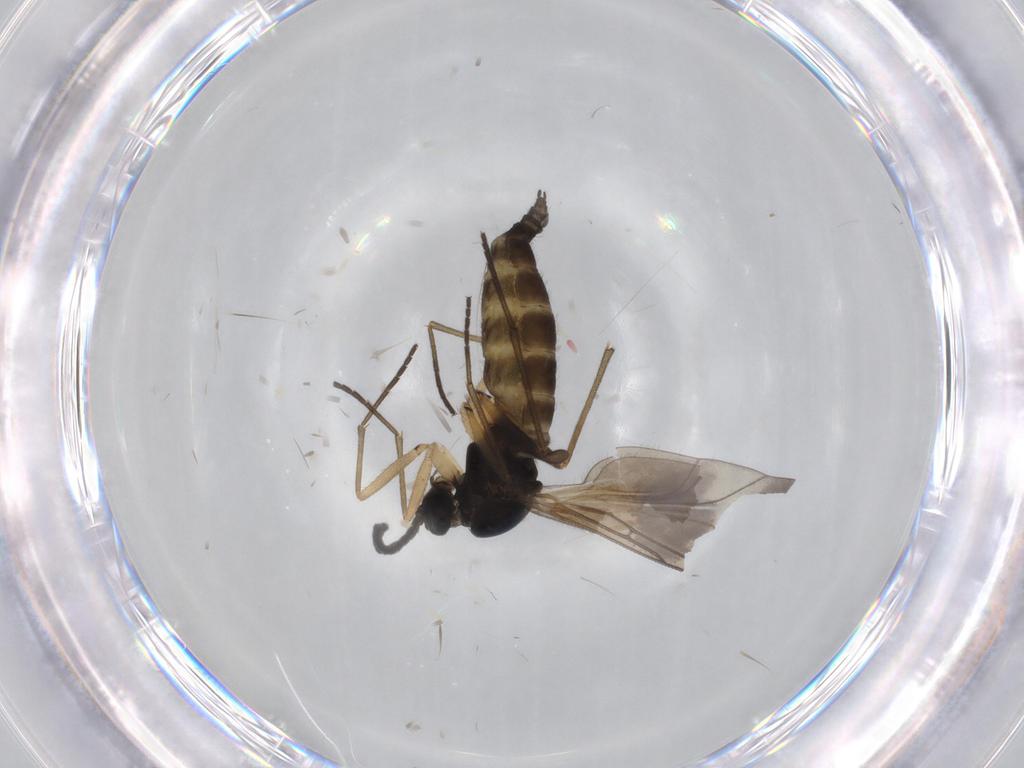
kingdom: Animalia
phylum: Arthropoda
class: Insecta
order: Diptera
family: Sciaridae
